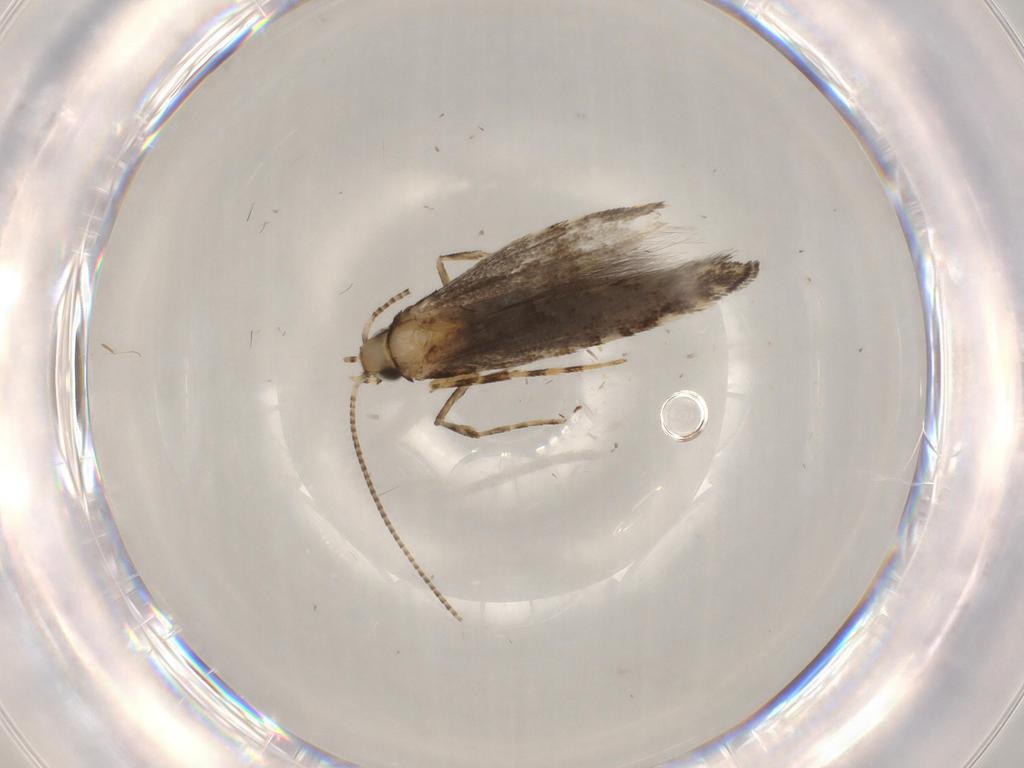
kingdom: Animalia
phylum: Arthropoda
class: Insecta
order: Lepidoptera
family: Gracillariidae
